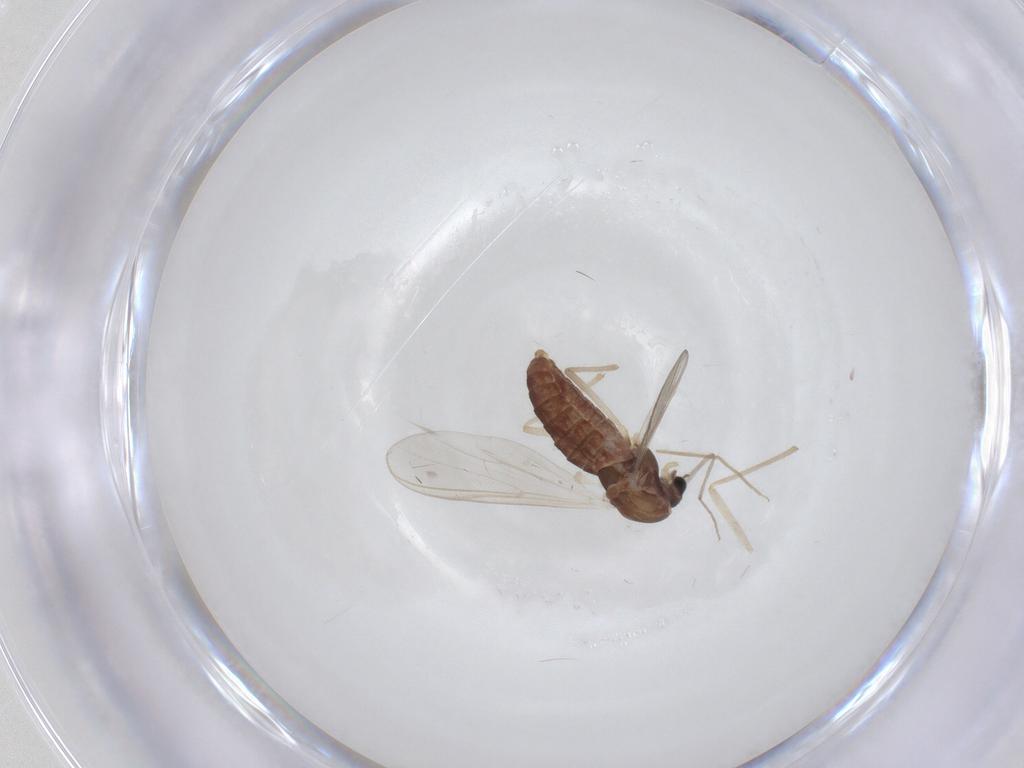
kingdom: Animalia
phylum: Arthropoda
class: Insecta
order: Diptera
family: Chironomidae
